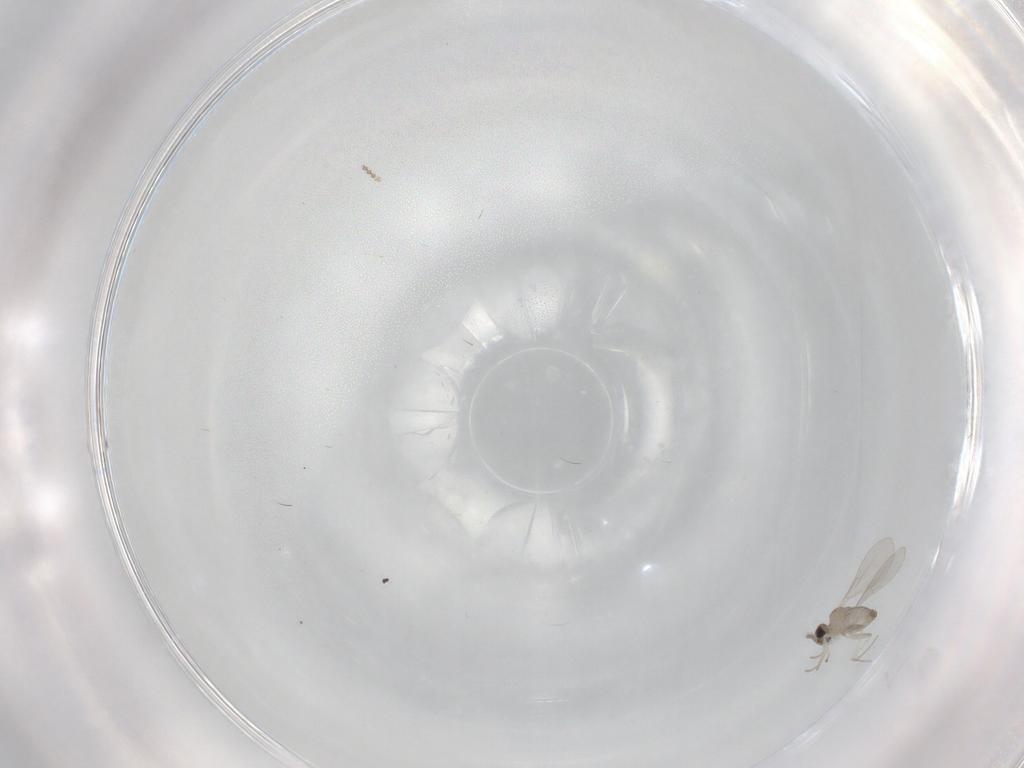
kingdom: Animalia
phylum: Arthropoda
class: Insecta
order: Diptera
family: Cecidomyiidae
